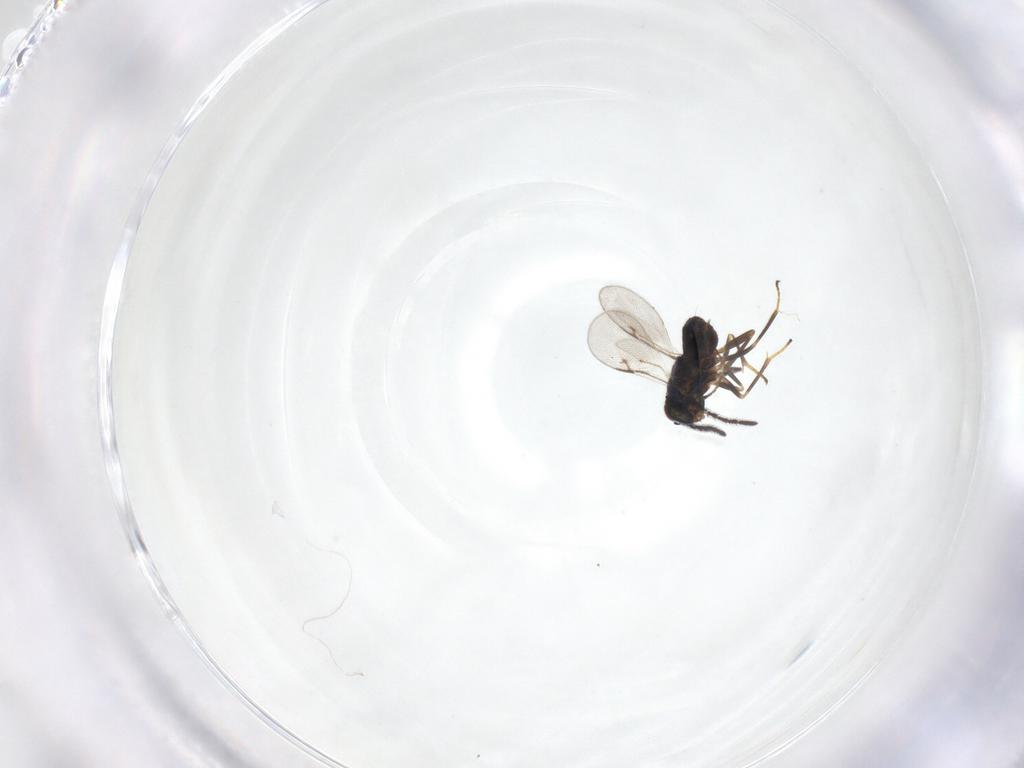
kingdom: Animalia
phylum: Arthropoda
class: Insecta
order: Hymenoptera
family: Encyrtidae
